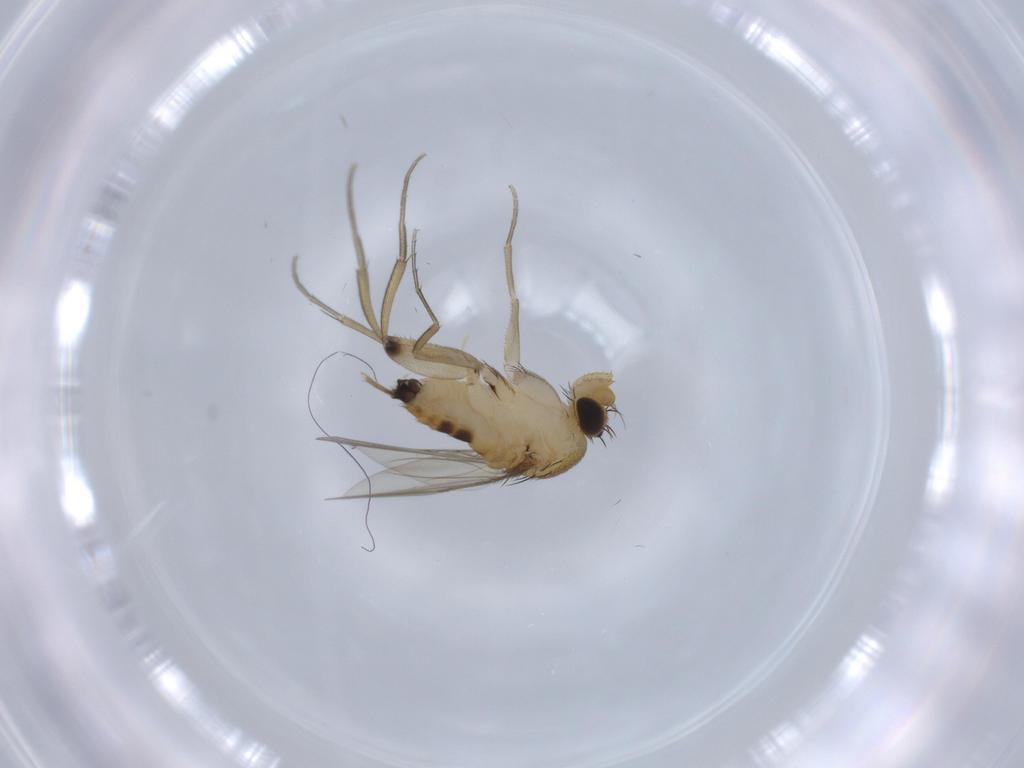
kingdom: Animalia
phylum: Arthropoda
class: Insecta
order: Diptera
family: Phoridae
